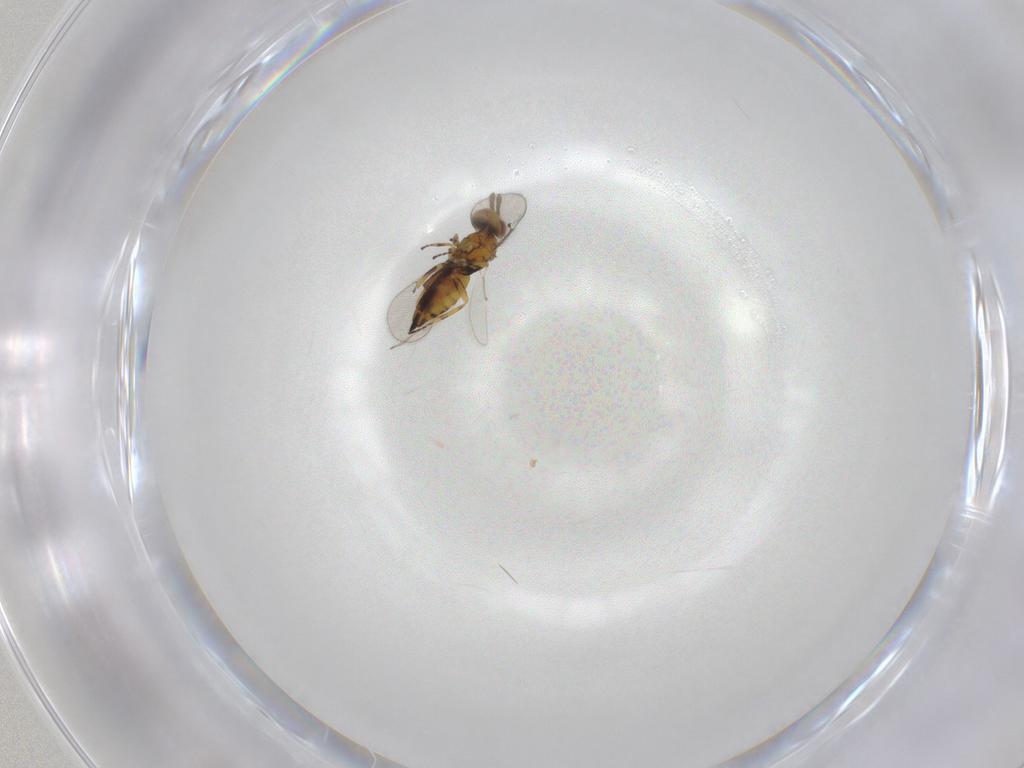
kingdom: Animalia
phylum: Arthropoda
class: Insecta
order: Hymenoptera
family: Eulophidae
